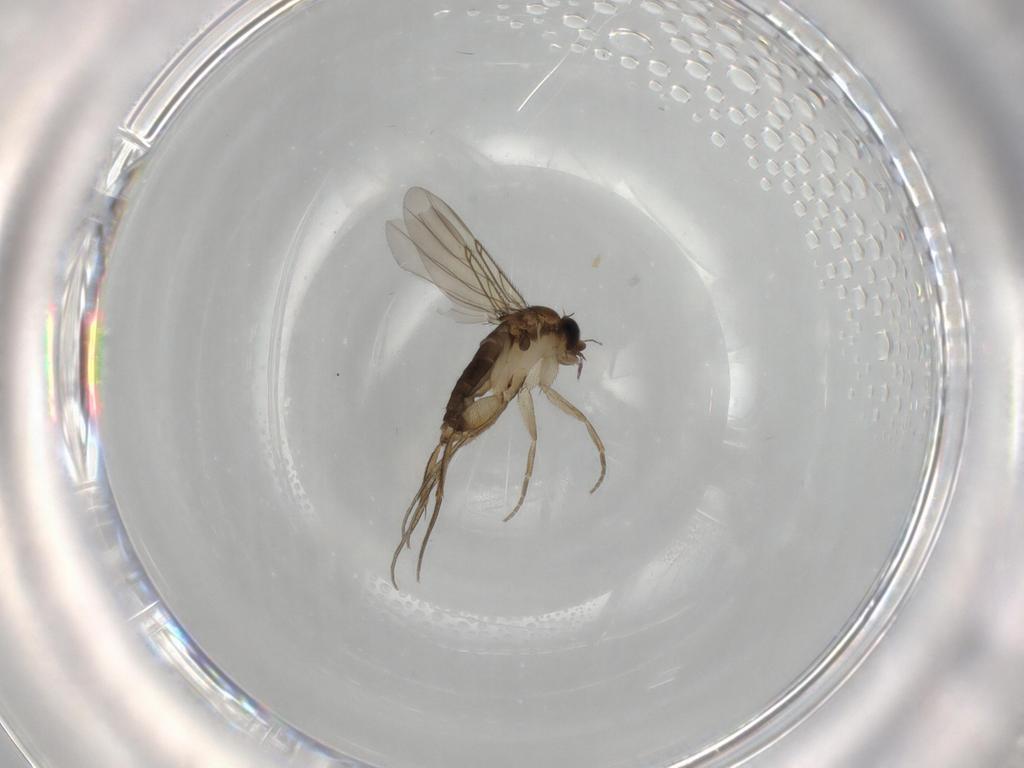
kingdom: Animalia
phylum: Arthropoda
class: Insecta
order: Diptera
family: Phoridae
